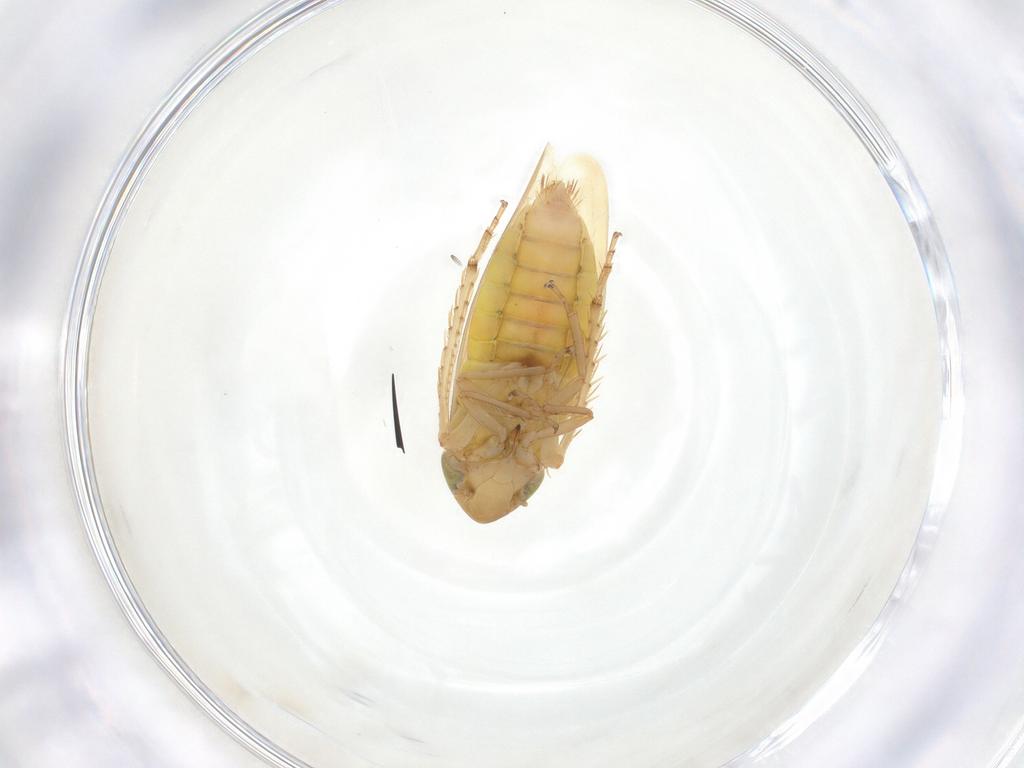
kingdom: Animalia
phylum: Arthropoda
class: Insecta
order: Hemiptera
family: Cicadellidae
